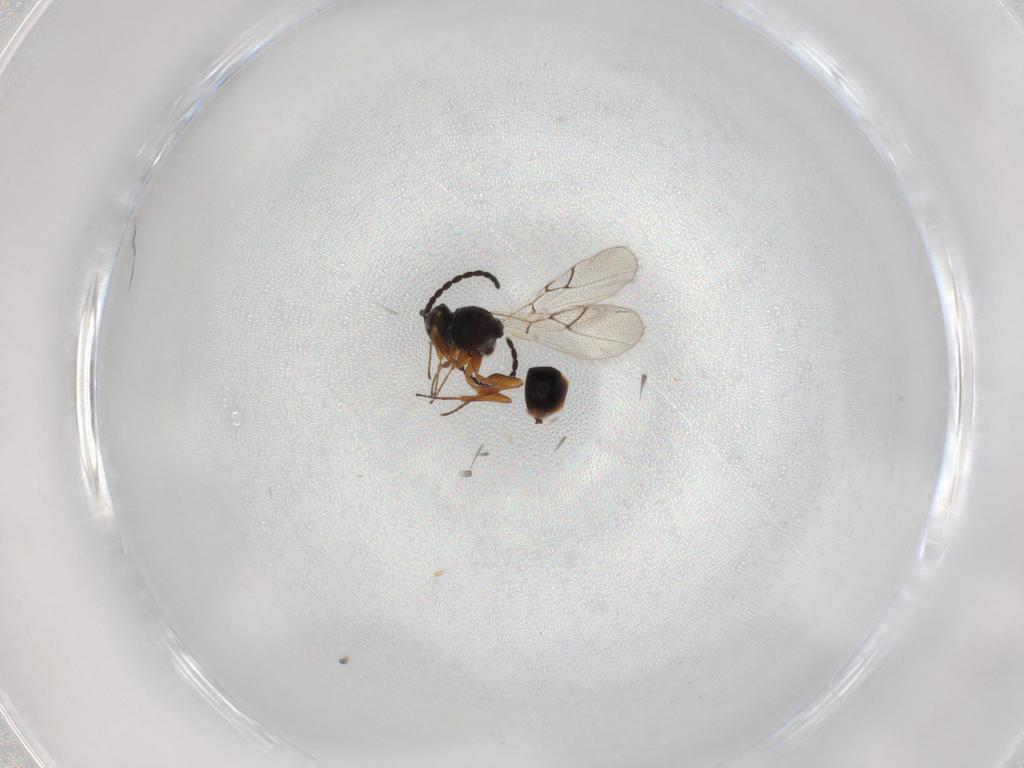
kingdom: Animalia
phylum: Arthropoda
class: Insecta
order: Hymenoptera
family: Figitidae
